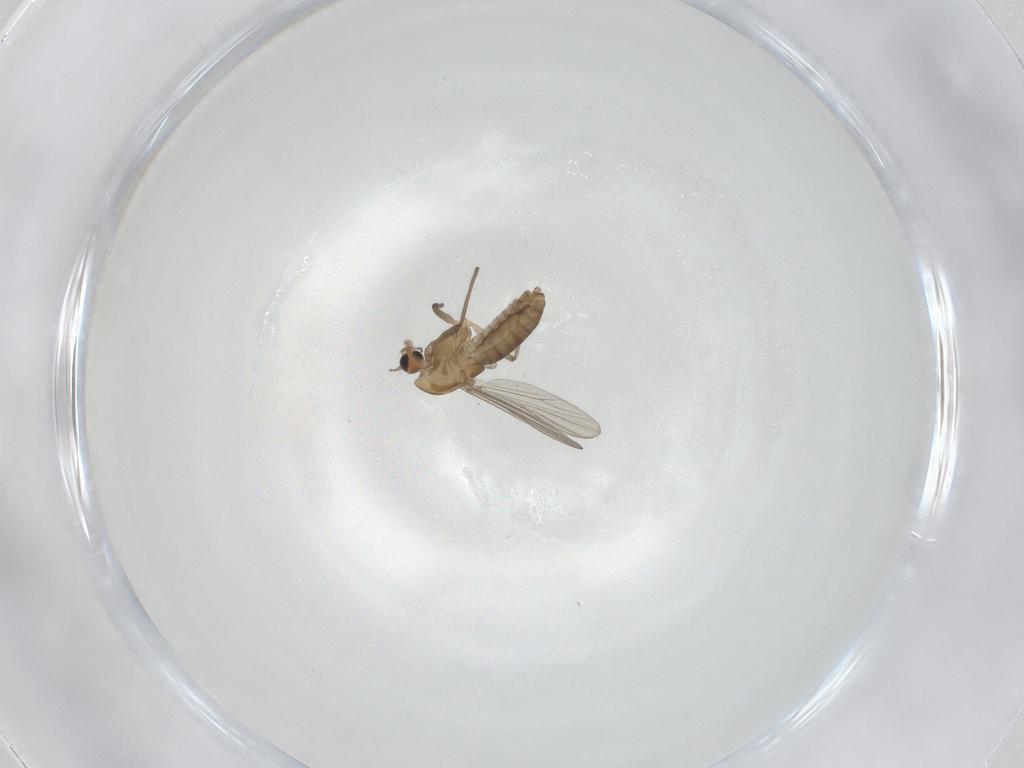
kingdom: Animalia
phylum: Arthropoda
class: Insecta
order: Diptera
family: Chironomidae
